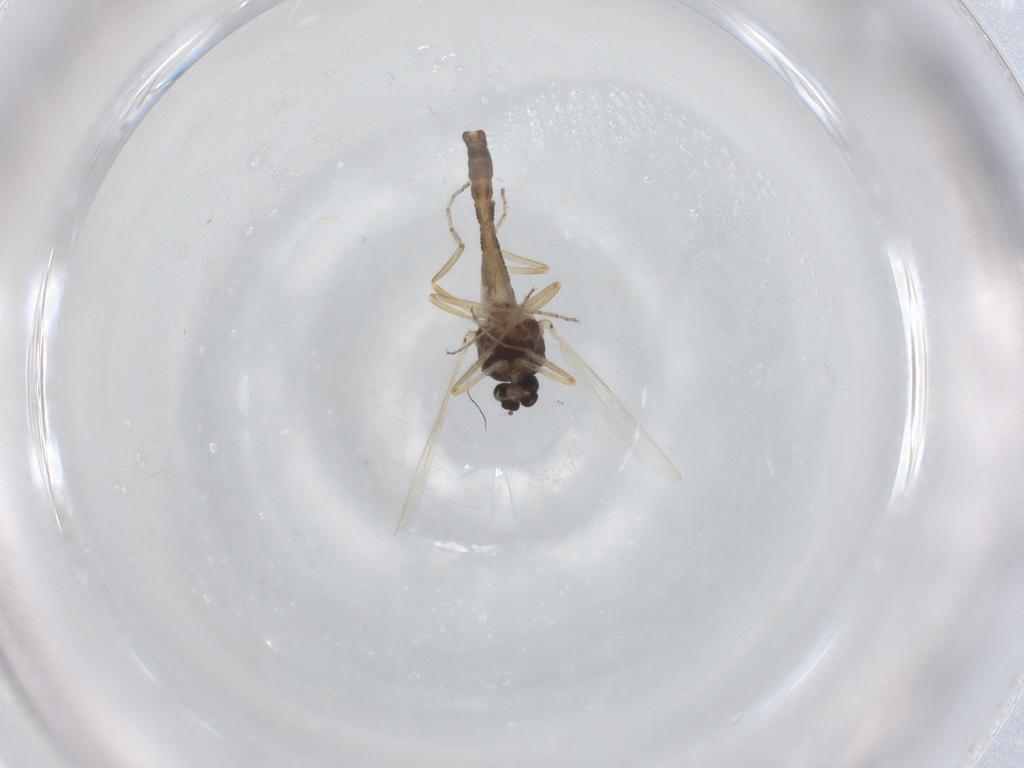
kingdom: Animalia
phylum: Arthropoda
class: Insecta
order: Diptera
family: Ceratopogonidae
